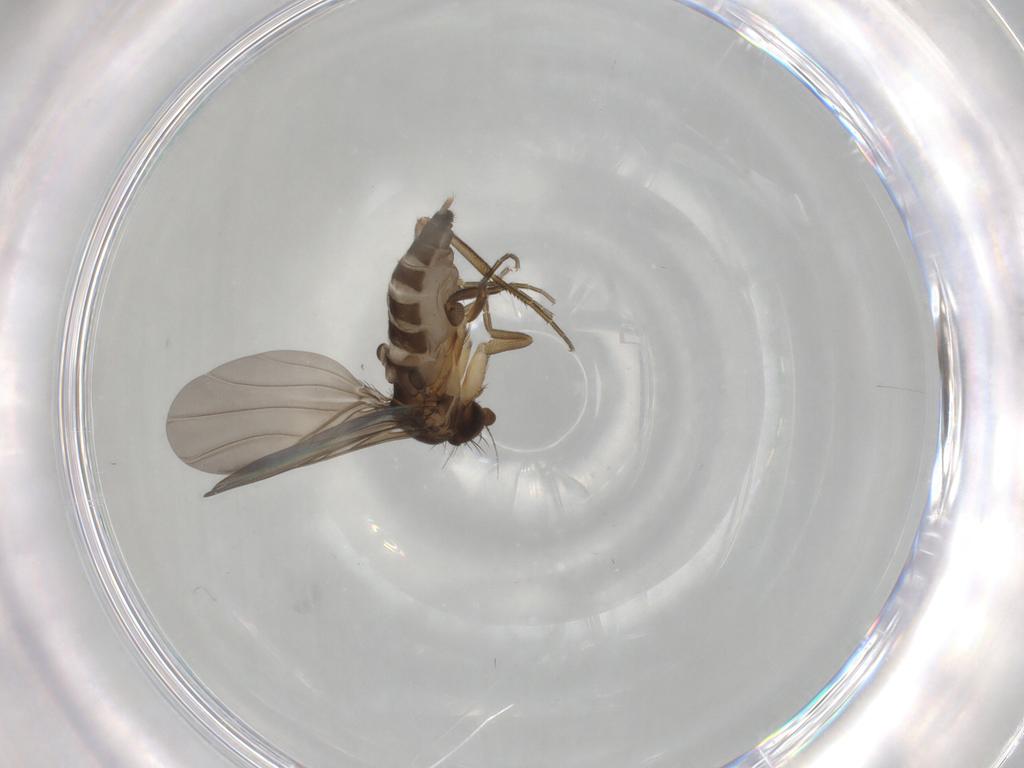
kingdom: Animalia
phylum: Arthropoda
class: Insecta
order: Diptera
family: Phoridae
